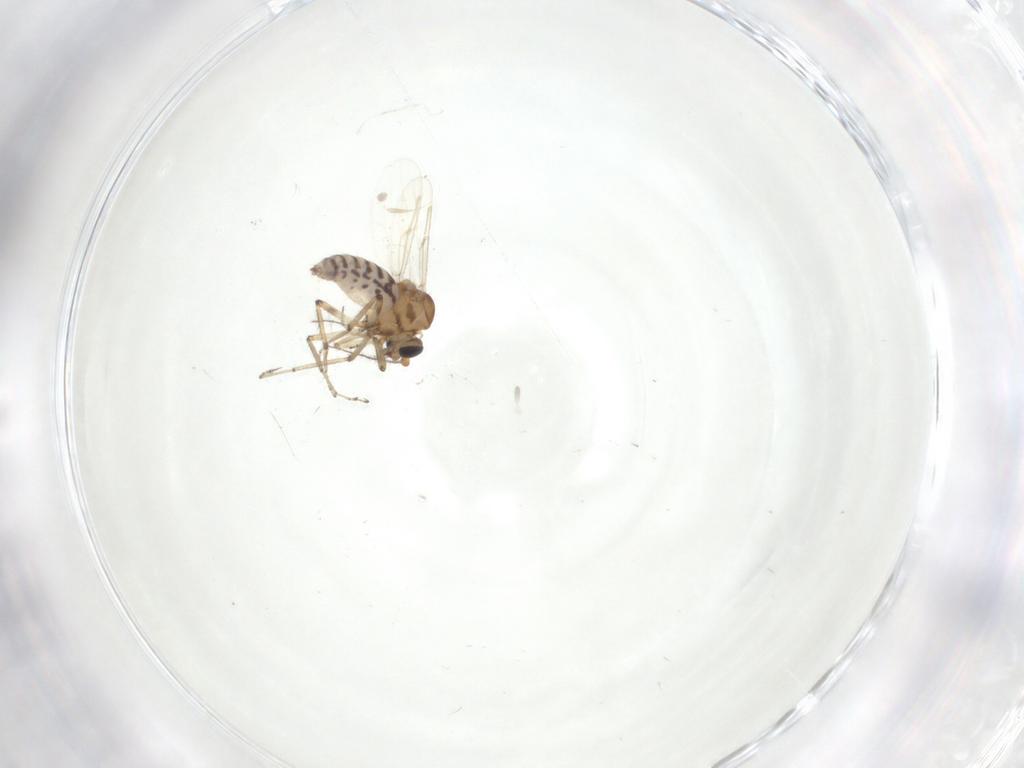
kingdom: Animalia
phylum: Arthropoda
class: Insecta
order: Diptera
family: Ceratopogonidae
